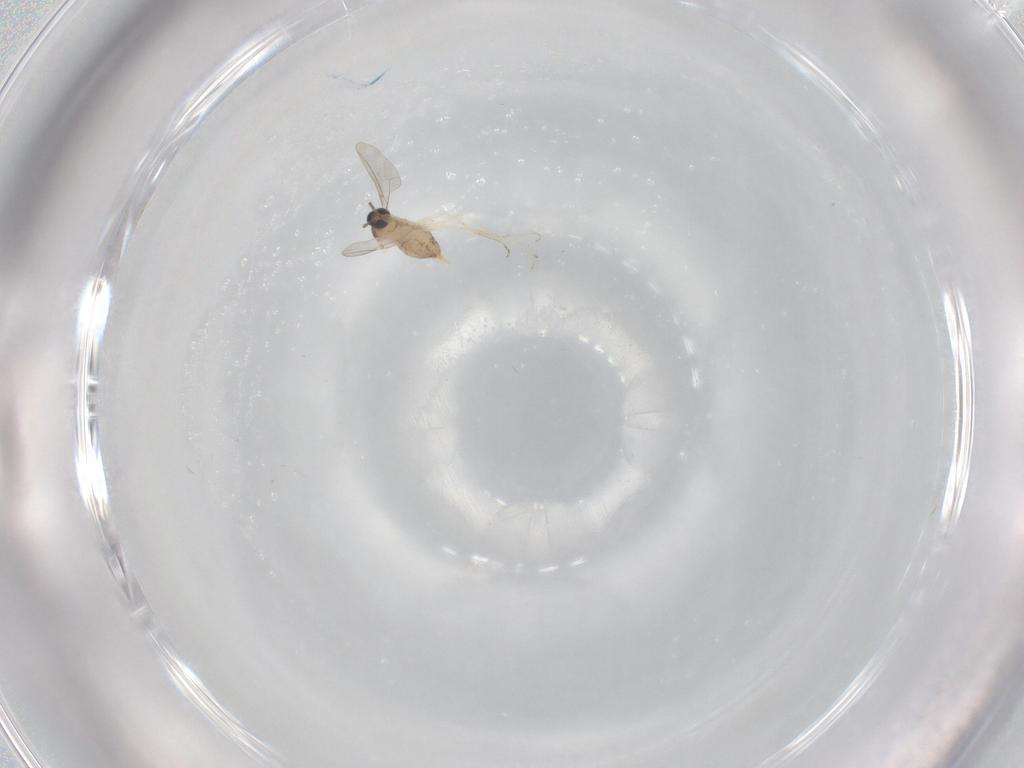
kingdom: Animalia
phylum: Arthropoda
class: Insecta
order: Diptera
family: Cecidomyiidae
